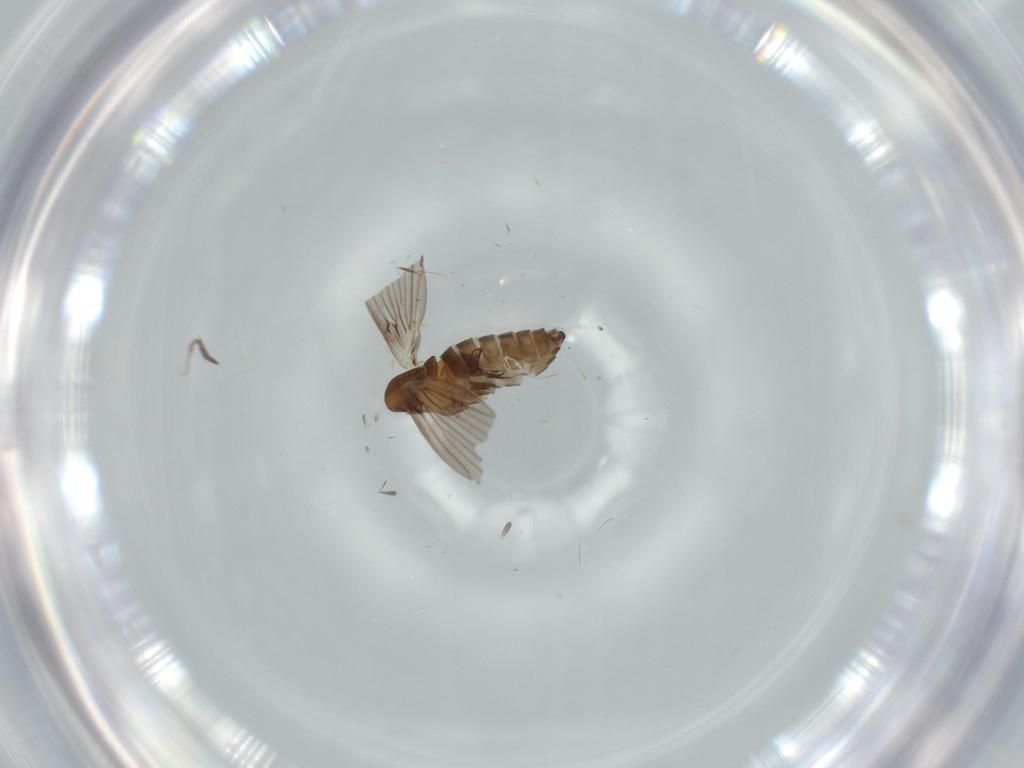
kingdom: Animalia
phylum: Arthropoda
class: Insecta
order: Diptera
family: Psychodidae
